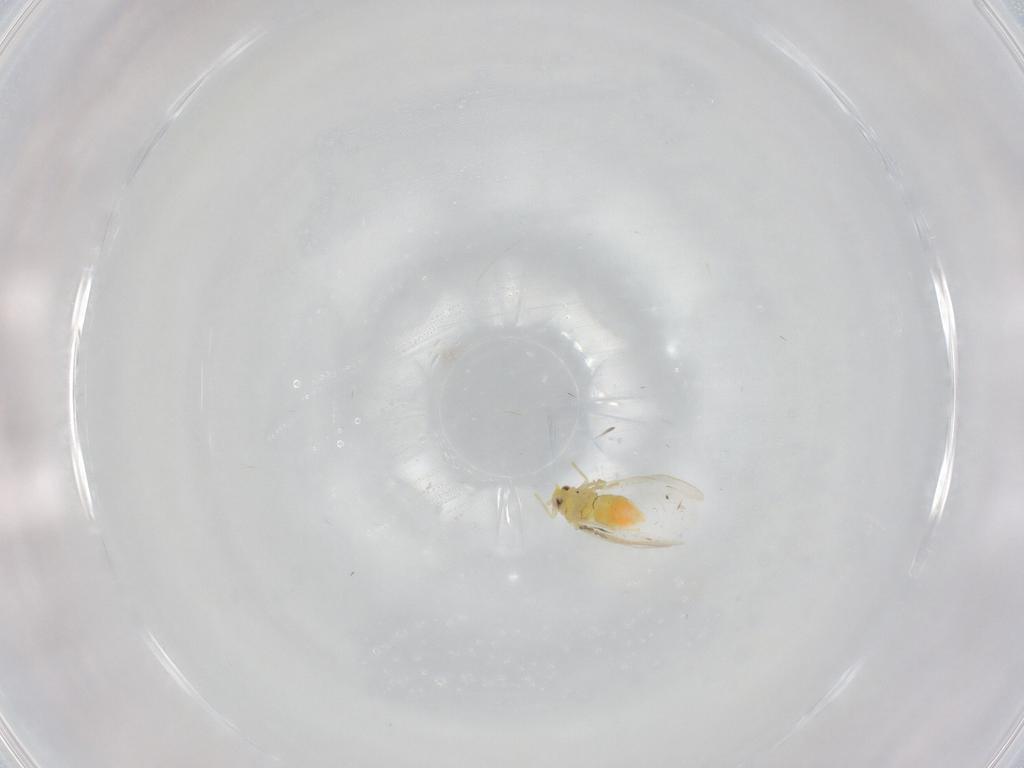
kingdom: Animalia
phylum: Arthropoda
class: Insecta
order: Hemiptera
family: Aleyrodidae
